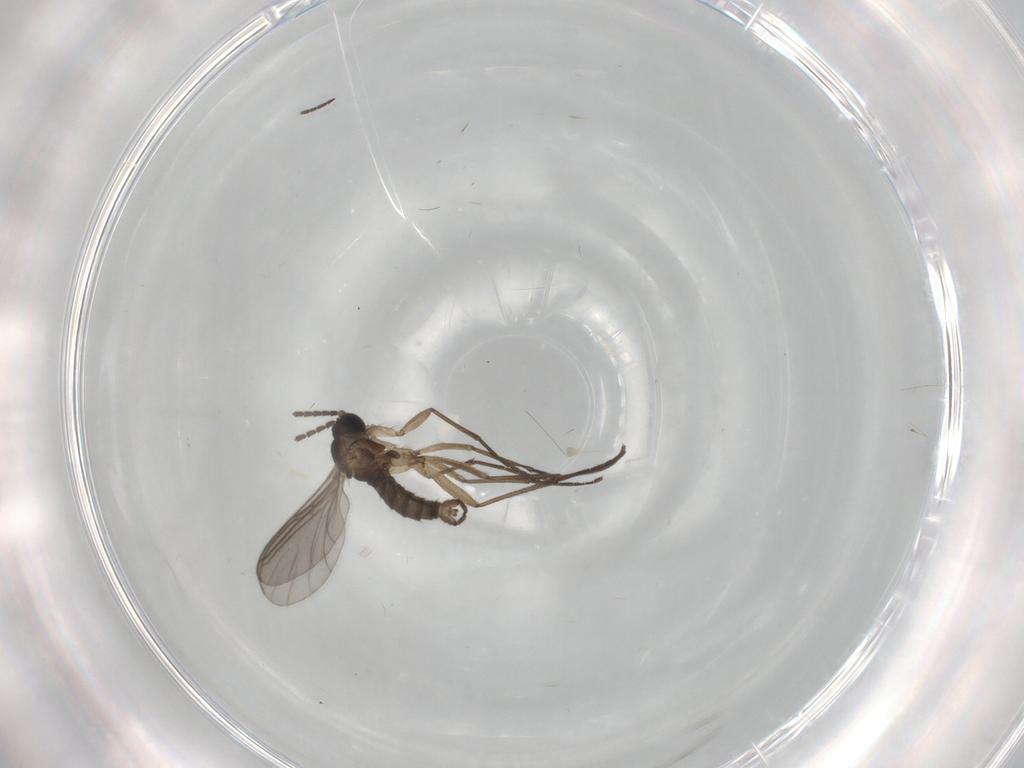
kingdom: Animalia
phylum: Arthropoda
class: Insecta
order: Diptera
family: Sciaridae
